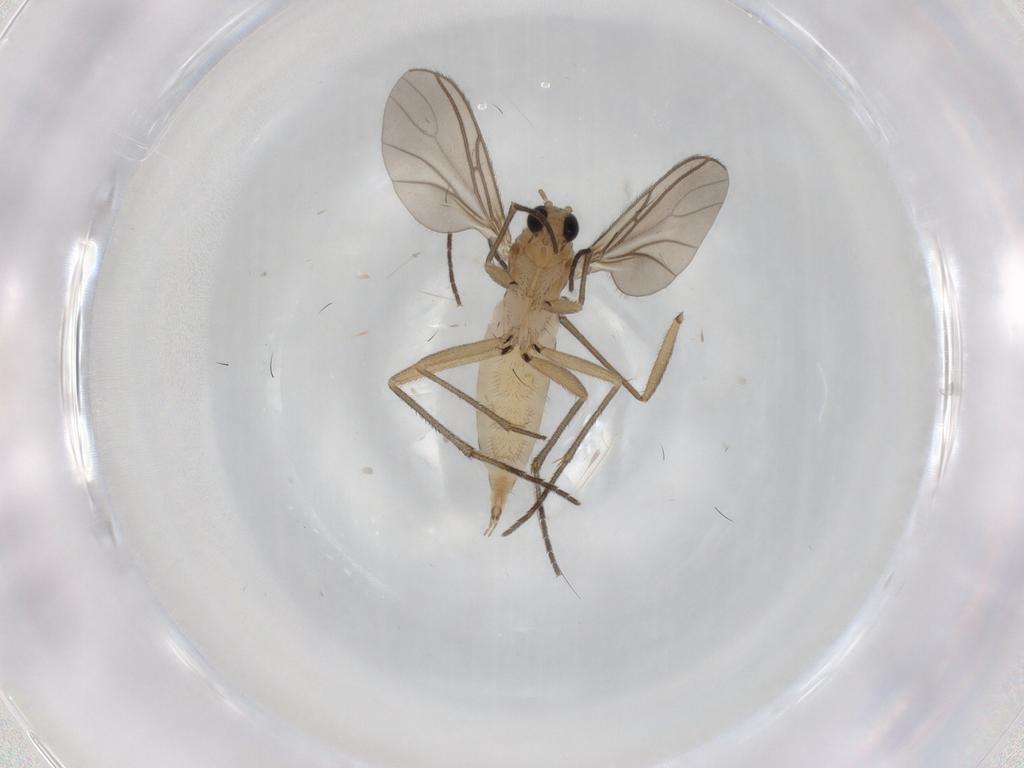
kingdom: Animalia
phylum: Arthropoda
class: Insecta
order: Diptera
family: Sciaridae
